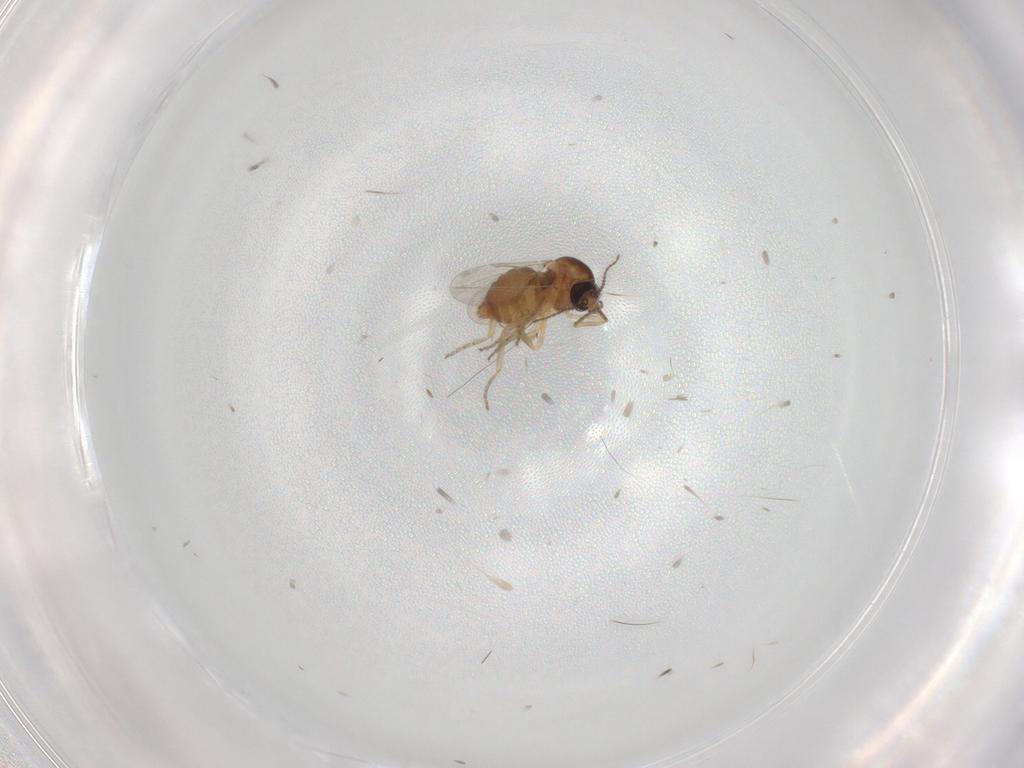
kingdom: Animalia
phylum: Arthropoda
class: Insecta
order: Diptera
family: Ceratopogonidae
